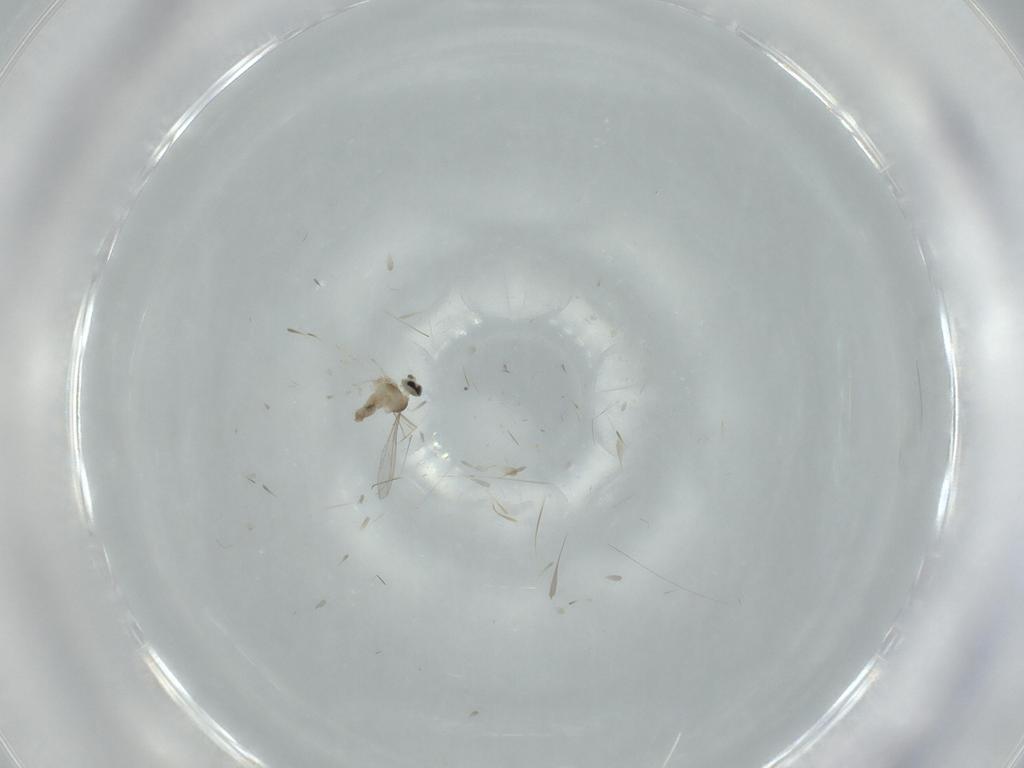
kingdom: Animalia
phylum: Arthropoda
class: Insecta
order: Diptera
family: Cecidomyiidae
